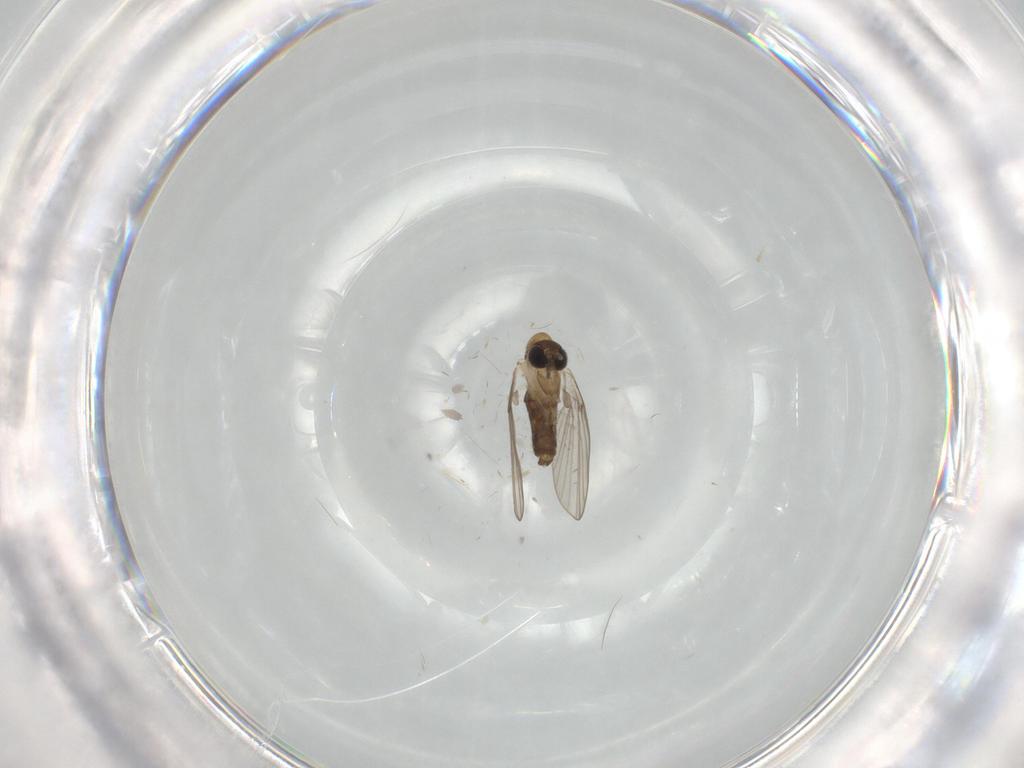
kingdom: Animalia
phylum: Arthropoda
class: Insecta
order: Diptera
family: Psychodidae
